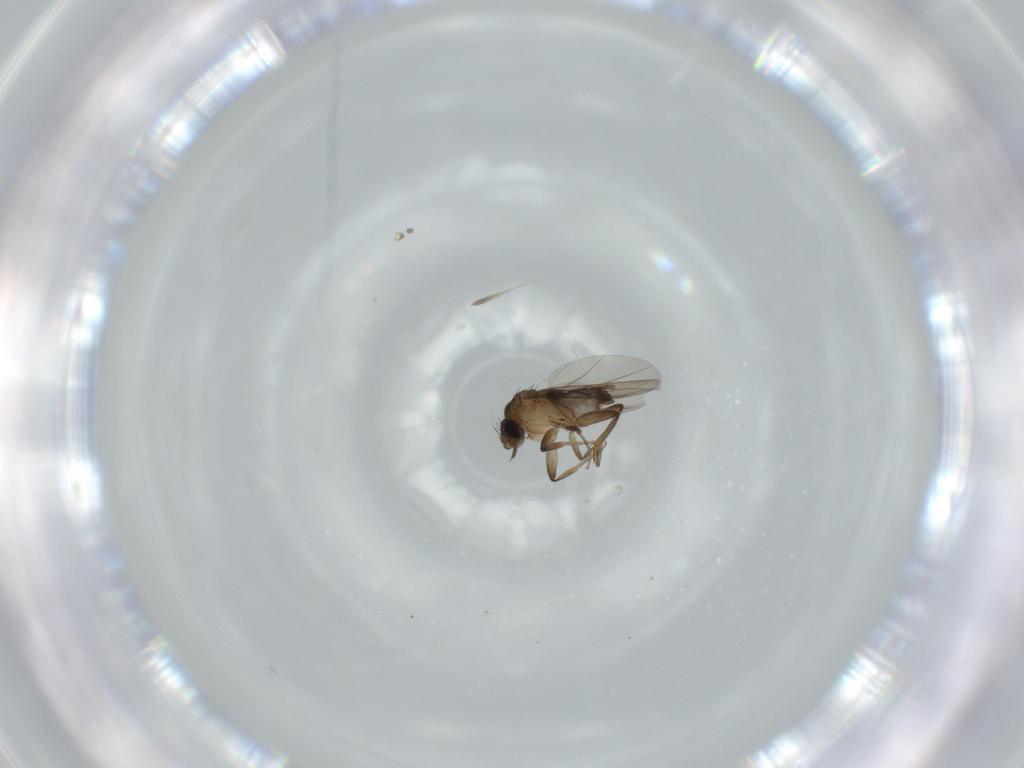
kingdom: Animalia
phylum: Arthropoda
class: Insecta
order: Diptera
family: Phoridae
